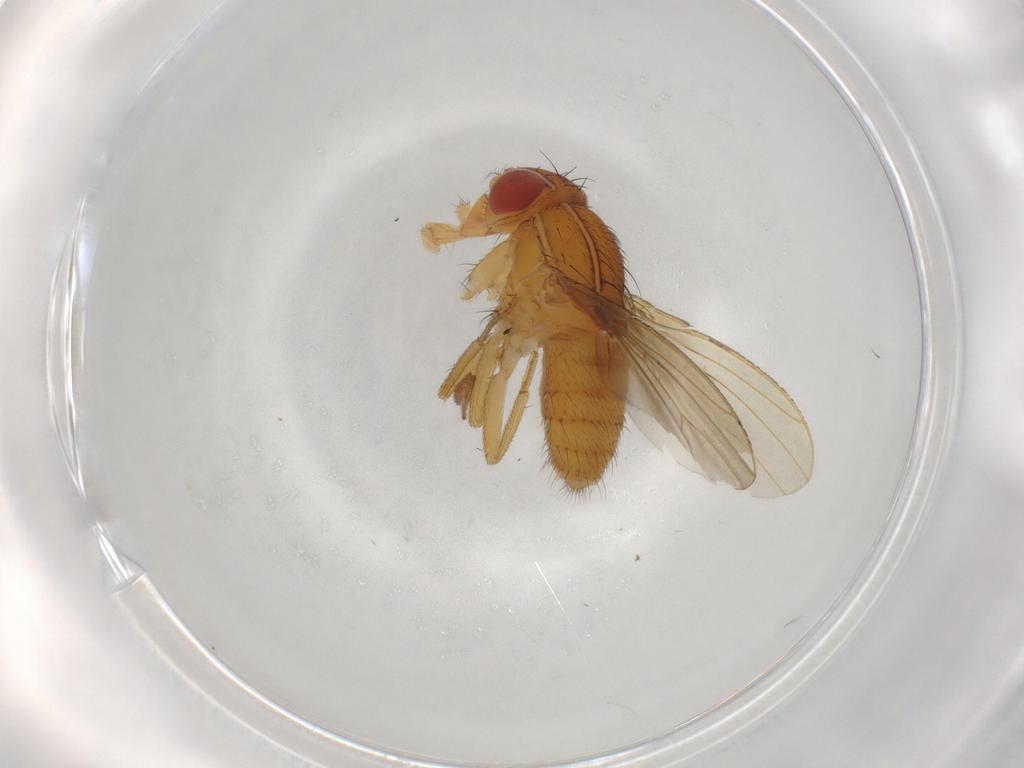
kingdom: Animalia
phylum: Arthropoda
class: Insecta
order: Diptera
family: Drosophilidae
